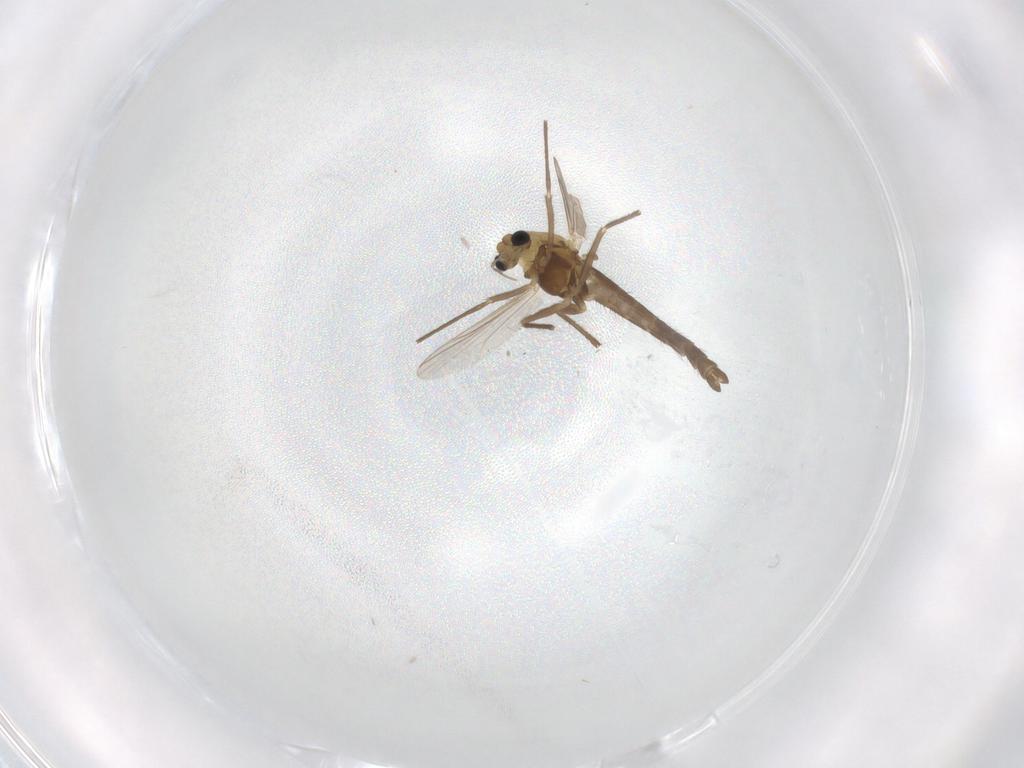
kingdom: Animalia
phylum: Arthropoda
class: Insecta
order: Diptera
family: Chironomidae
